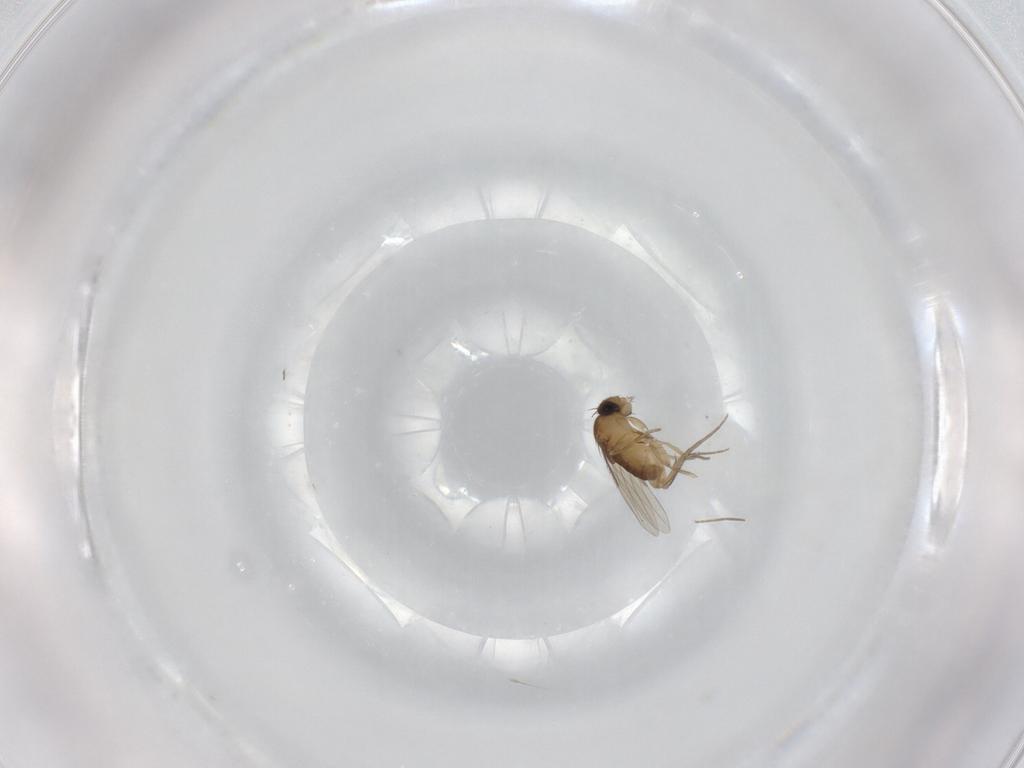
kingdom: Animalia
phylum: Arthropoda
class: Insecta
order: Diptera
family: Phoridae
